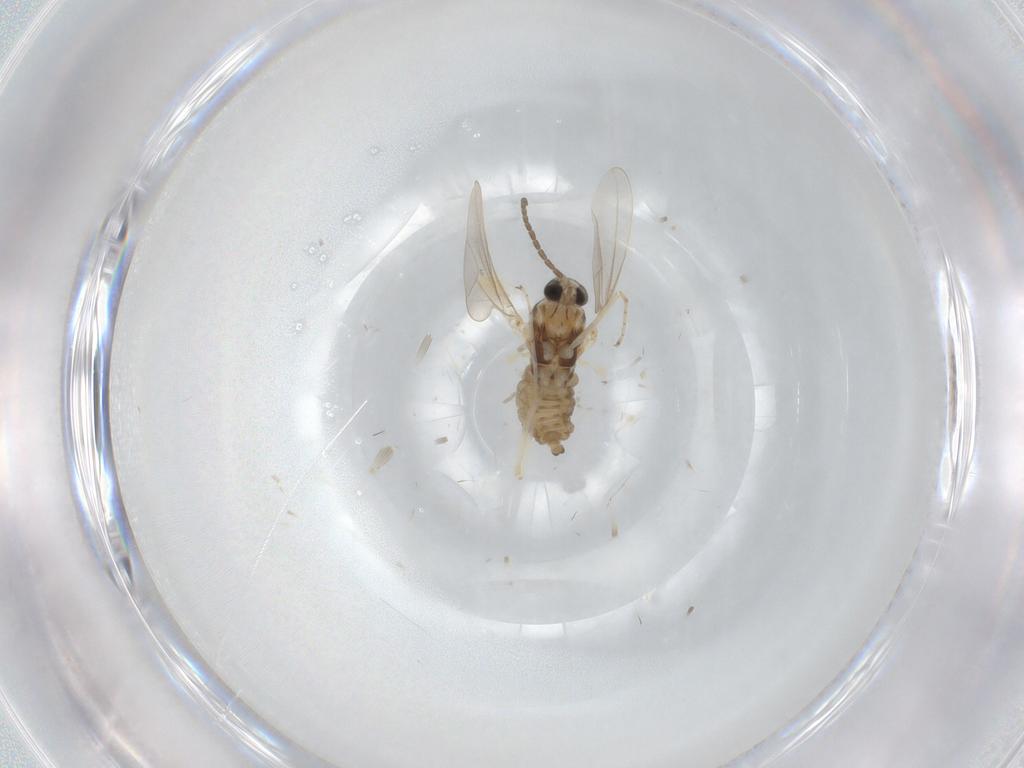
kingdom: Animalia
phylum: Arthropoda
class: Insecta
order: Diptera
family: Cecidomyiidae
